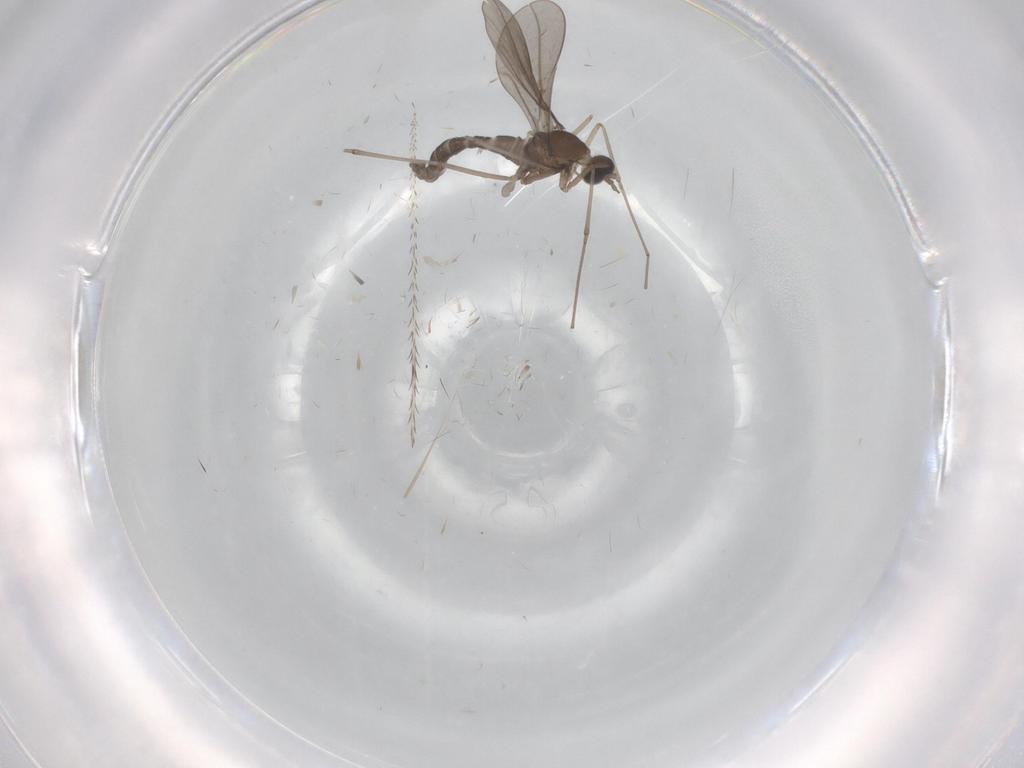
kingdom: Animalia
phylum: Arthropoda
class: Insecta
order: Diptera
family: Cecidomyiidae
